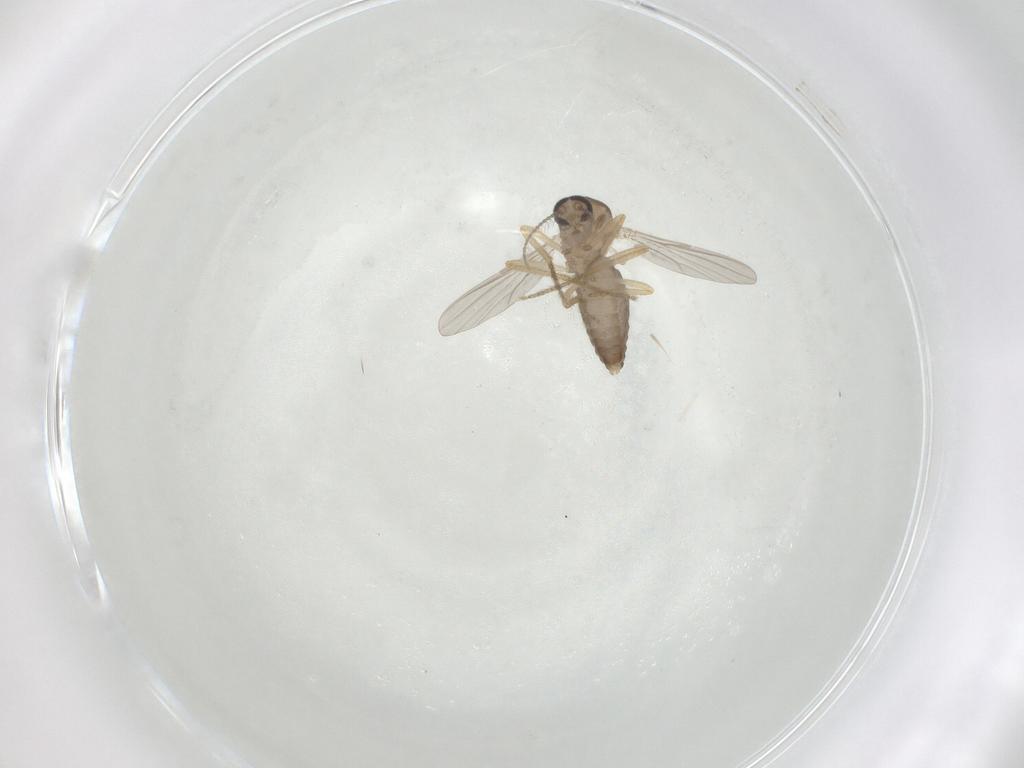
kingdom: Animalia
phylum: Arthropoda
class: Insecta
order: Diptera
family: Ceratopogonidae
